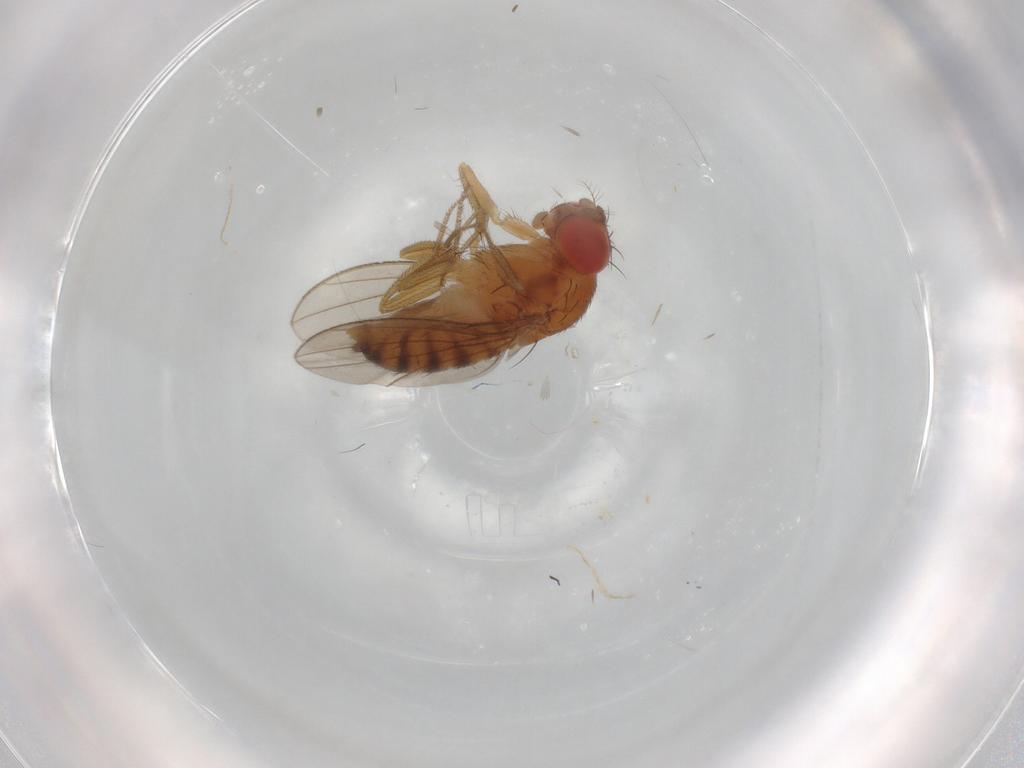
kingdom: Animalia
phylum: Arthropoda
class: Insecta
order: Diptera
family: Drosophilidae
